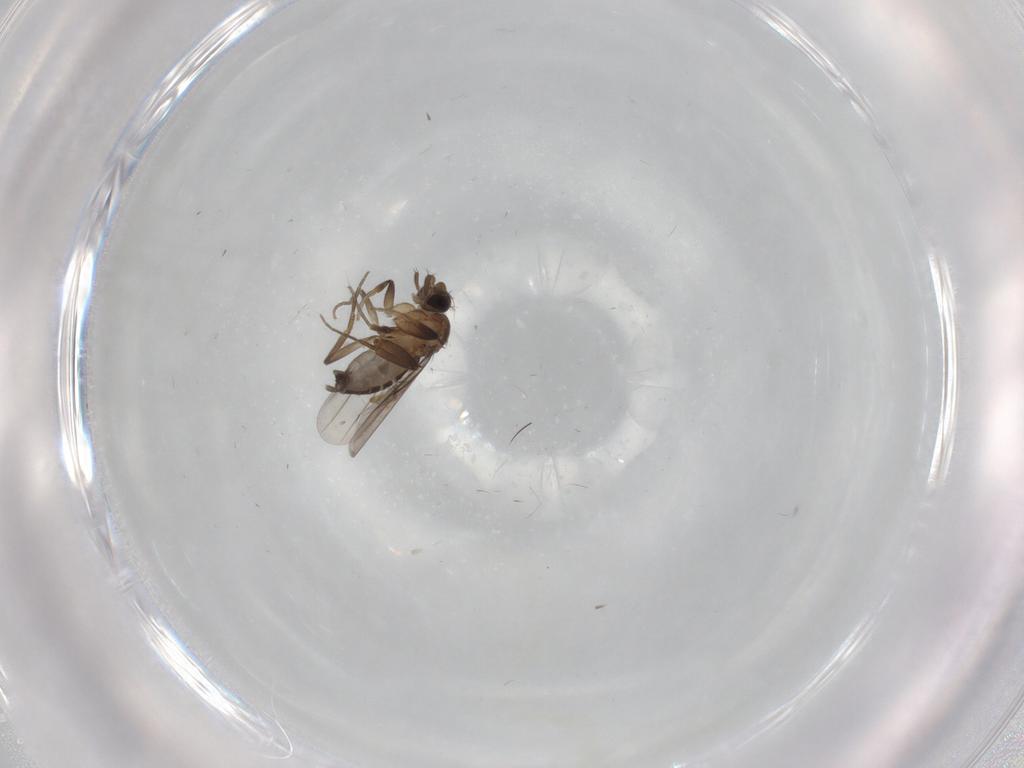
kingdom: Animalia
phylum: Arthropoda
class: Insecta
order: Diptera
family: Phoridae
